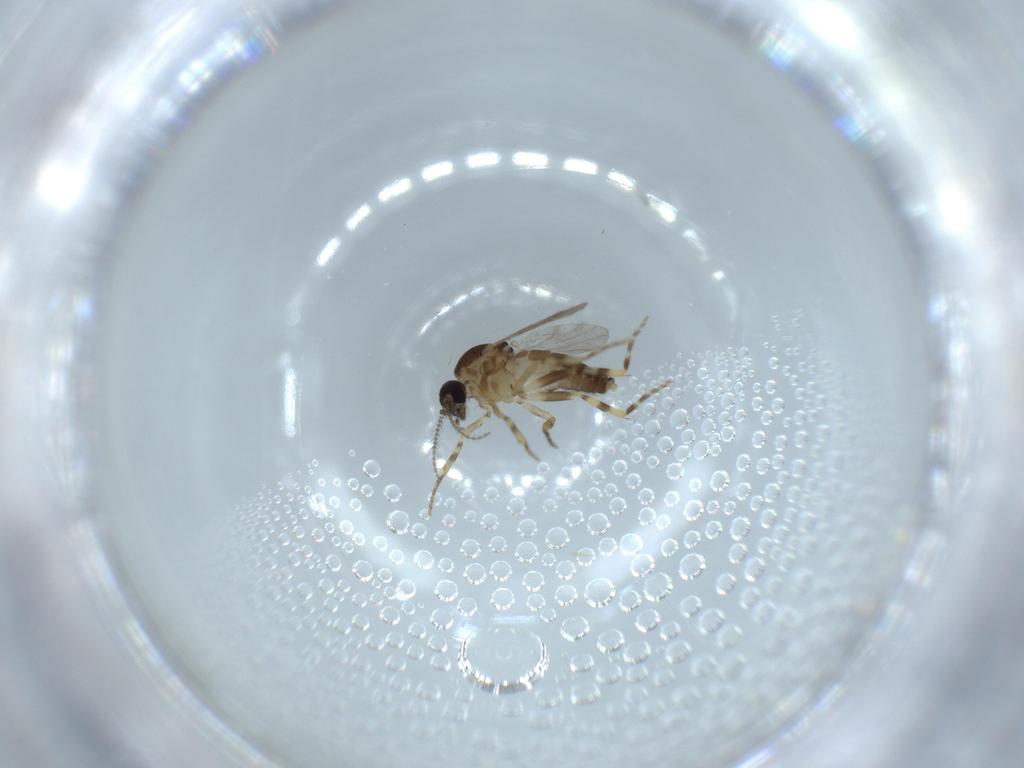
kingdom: Animalia
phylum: Arthropoda
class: Insecta
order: Diptera
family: Syrphidae
